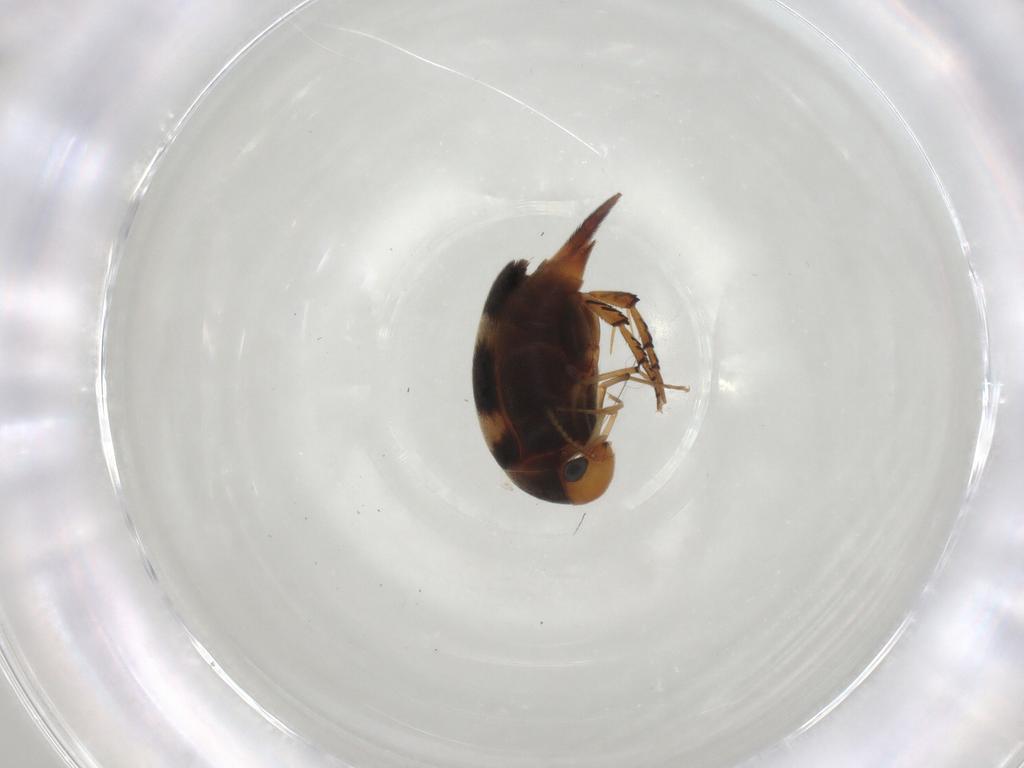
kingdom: Animalia
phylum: Arthropoda
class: Insecta
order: Coleoptera
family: Mordellidae
